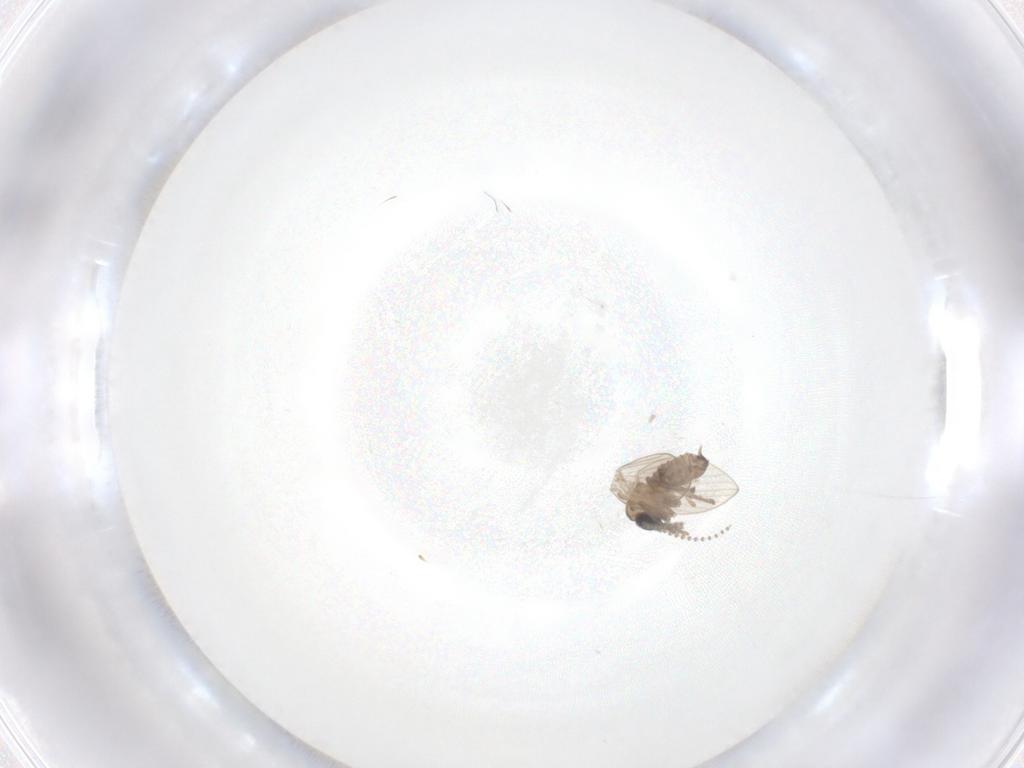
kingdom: Animalia
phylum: Arthropoda
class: Insecta
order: Diptera
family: Psychodidae
